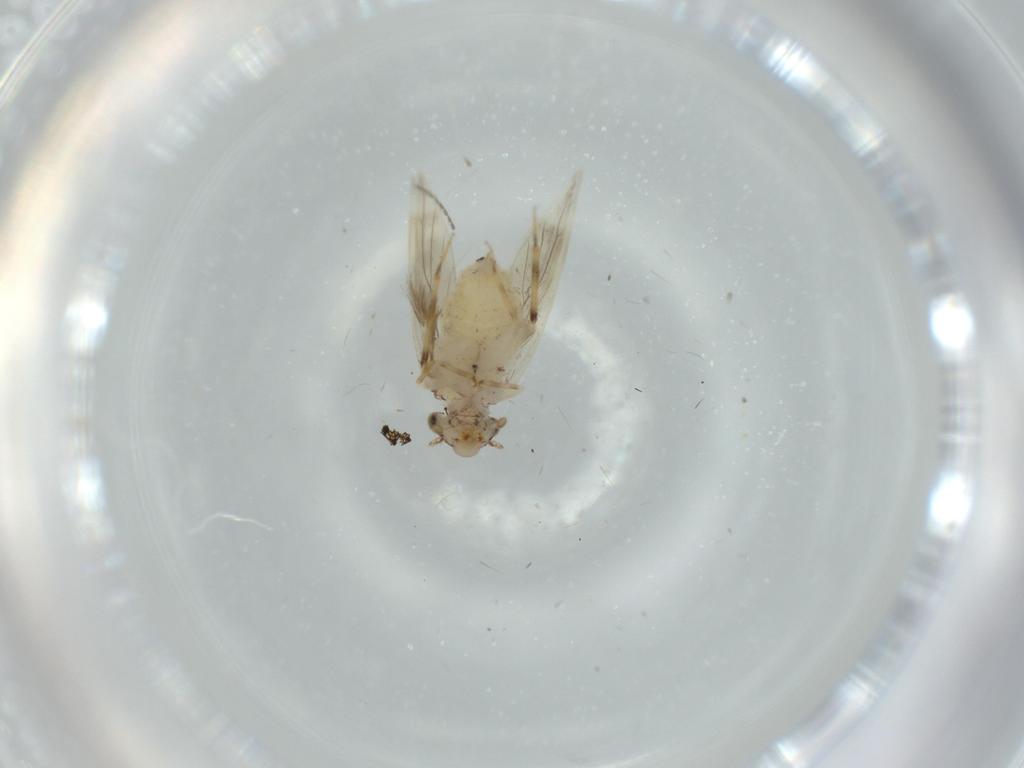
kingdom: Animalia
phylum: Arthropoda
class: Insecta
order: Psocodea
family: Lepidopsocidae
